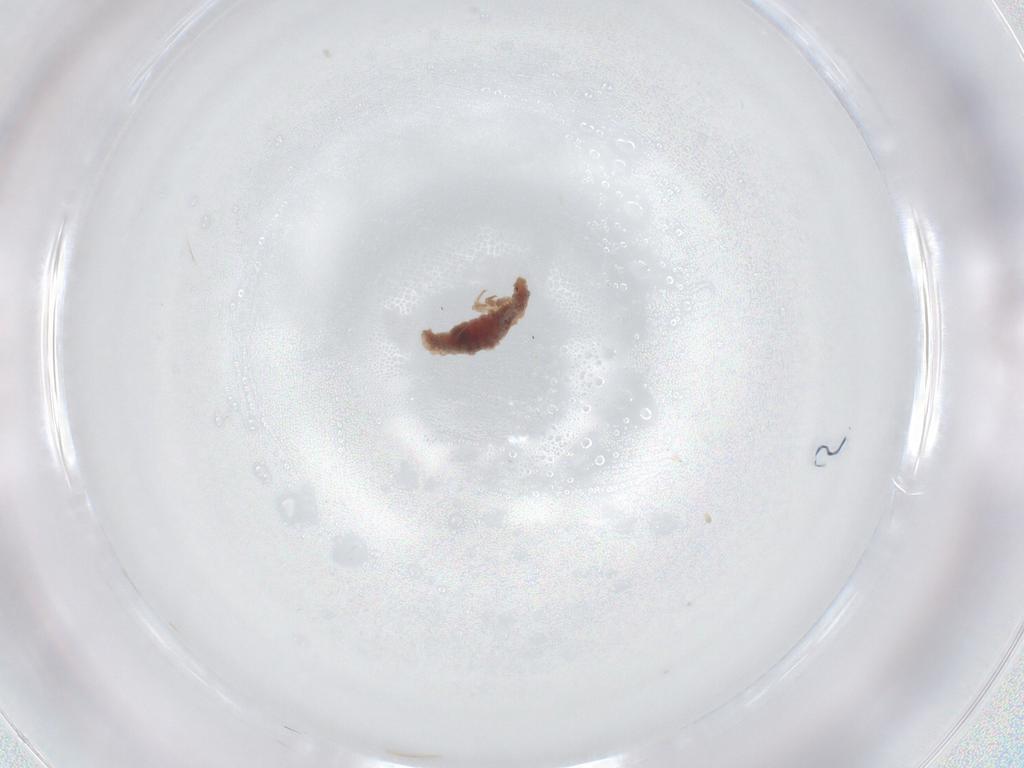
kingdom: Animalia
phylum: Arthropoda
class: Insecta
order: Coleoptera
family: Coccinellidae
